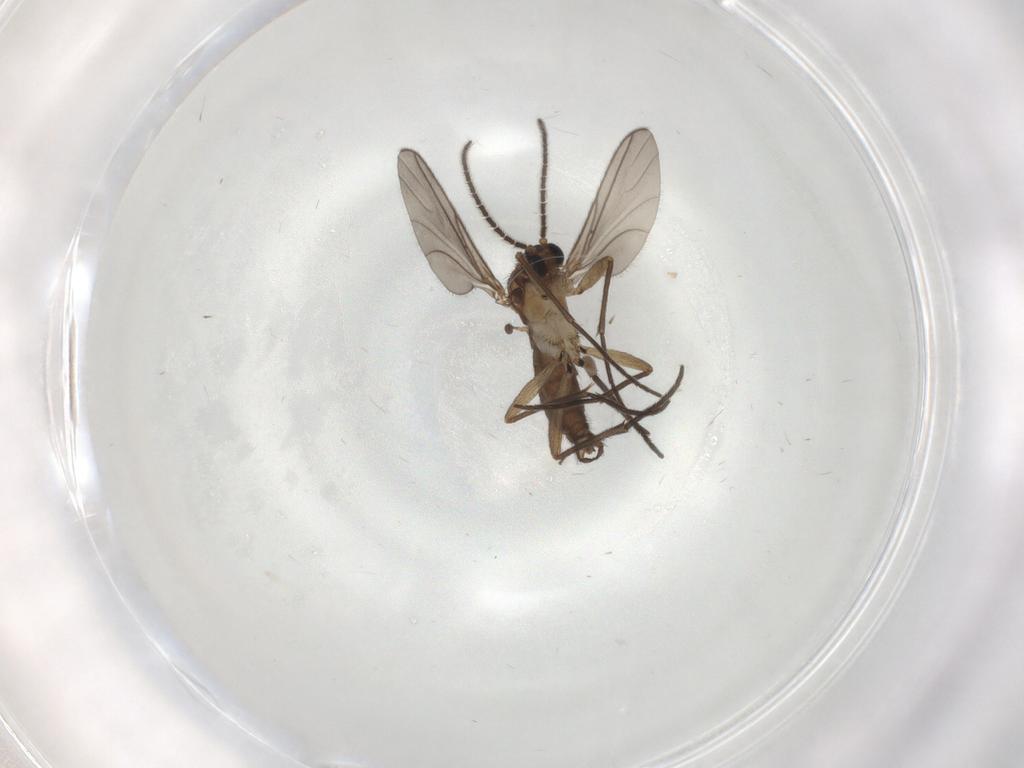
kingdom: Animalia
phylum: Arthropoda
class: Insecta
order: Diptera
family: Sciaridae
